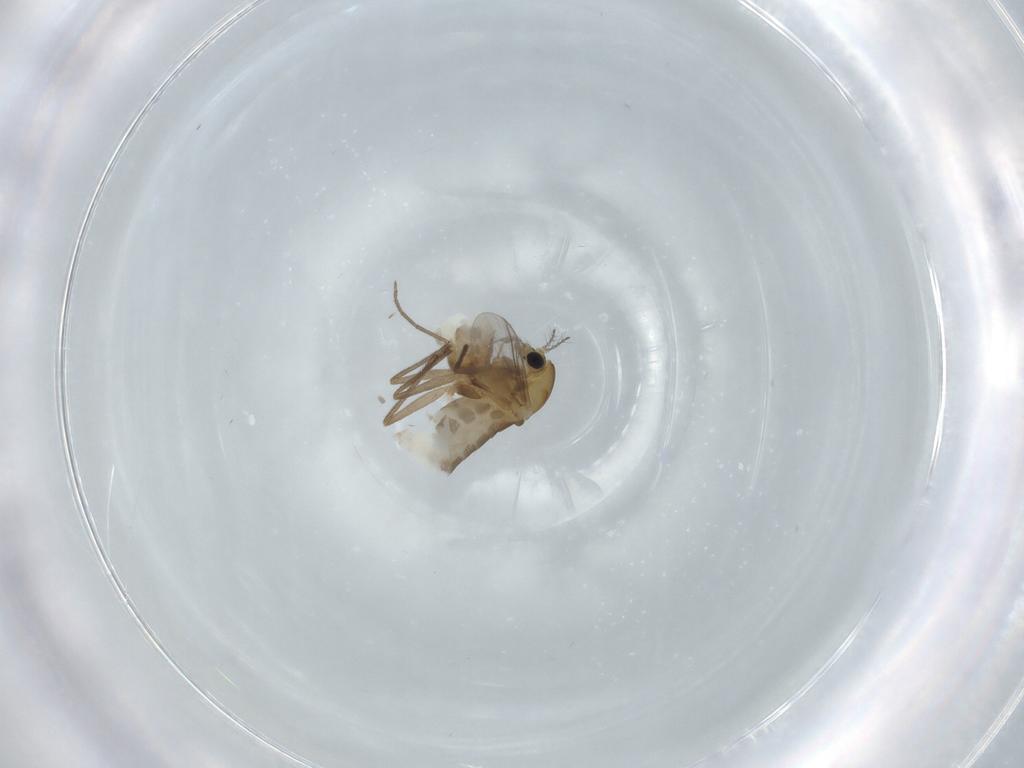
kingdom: Animalia
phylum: Arthropoda
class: Insecta
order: Diptera
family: Chironomidae
